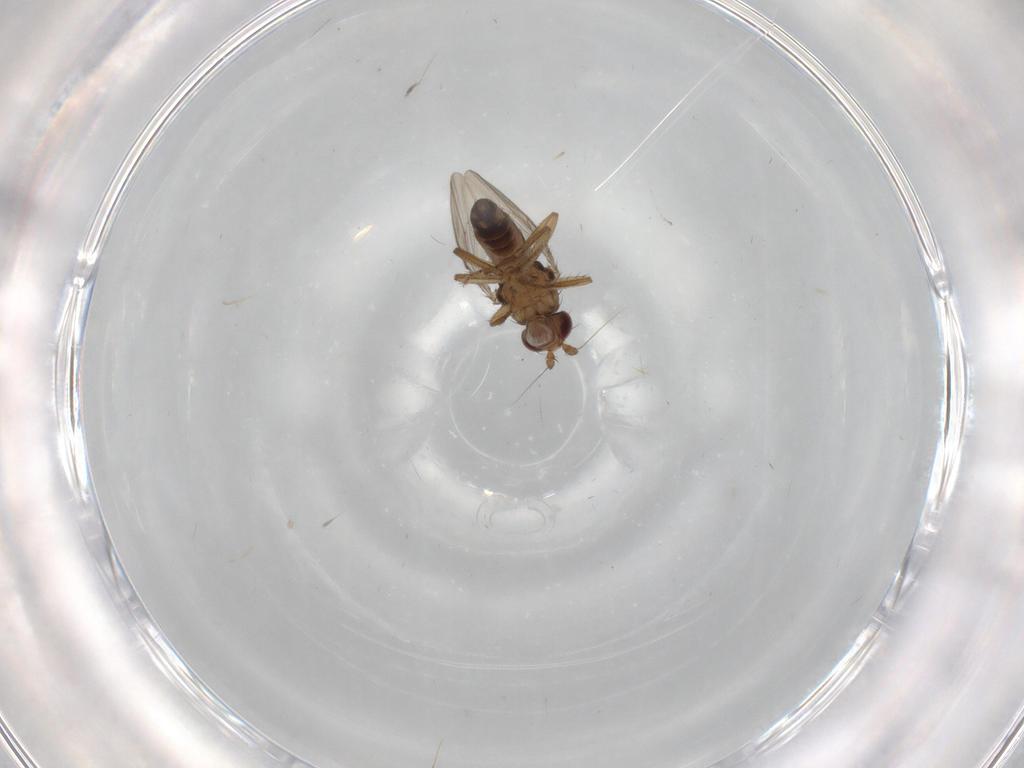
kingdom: Animalia
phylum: Arthropoda
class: Insecta
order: Diptera
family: Sphaeroceridae
